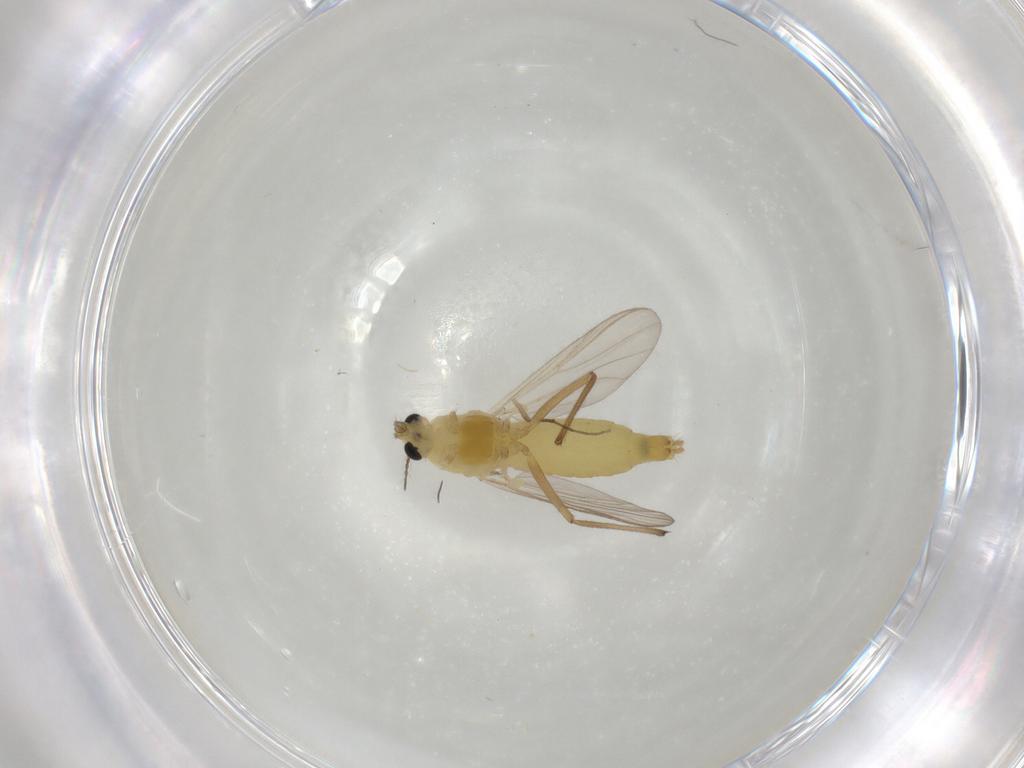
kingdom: Animalia
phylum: Arthropoda
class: Insecta
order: Diptera
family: Chironomidae
